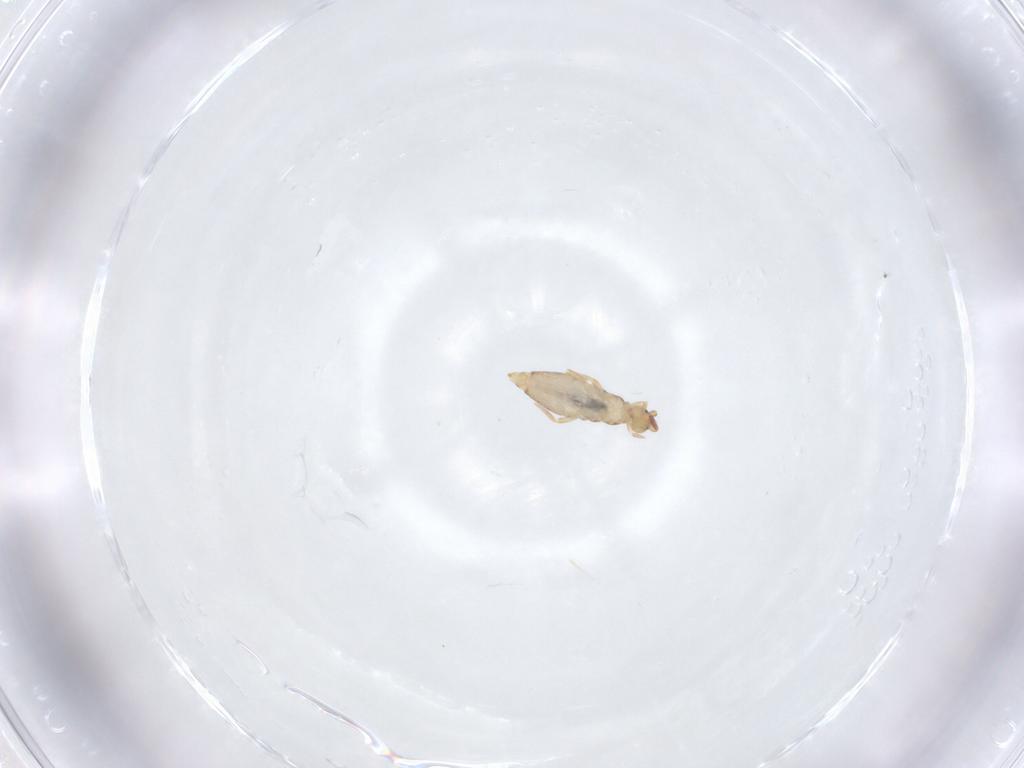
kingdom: Animalia
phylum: Arthropoda
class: Collembola
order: Entomobryomorpha
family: Entomobryidae
